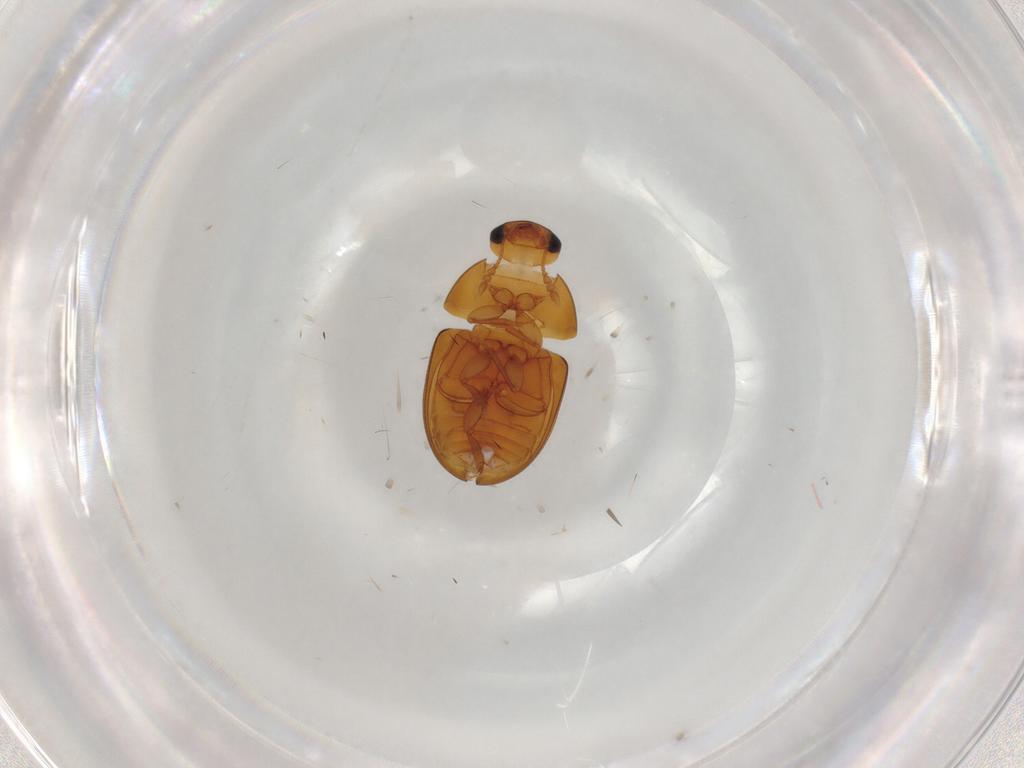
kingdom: Animalia
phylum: Arthropoda
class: Insecta
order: Coleoptera
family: Phalacridae
